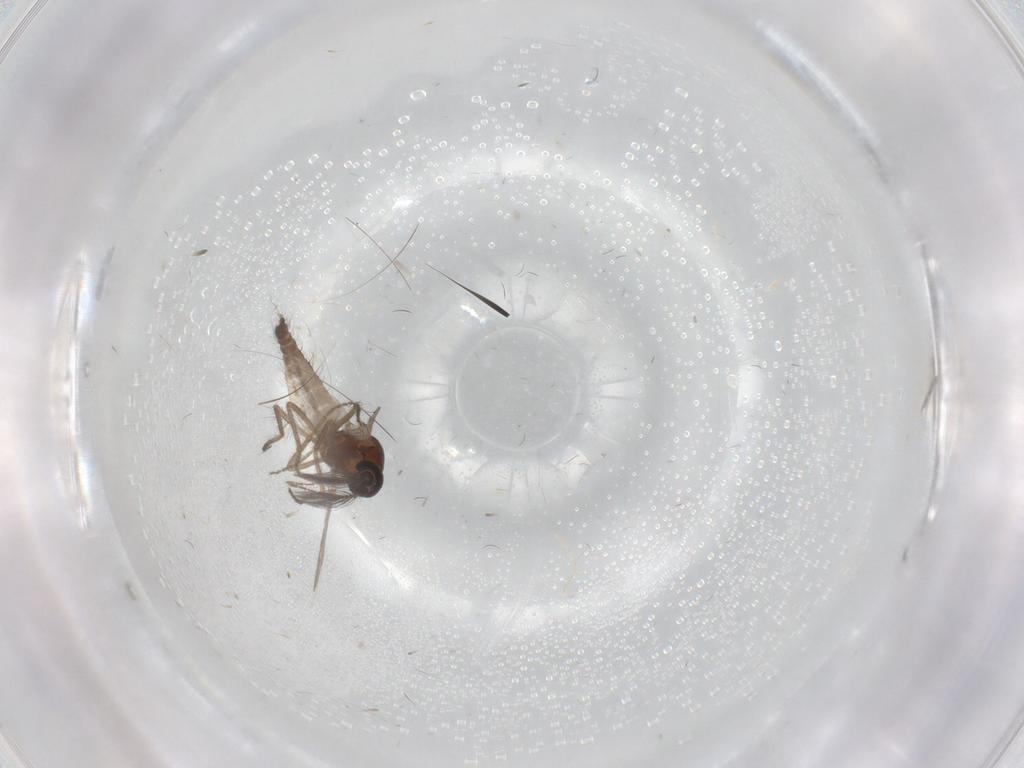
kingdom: Animalia
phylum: Arthropoda
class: Insecta
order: Diptera
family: Ceratopogonidae
